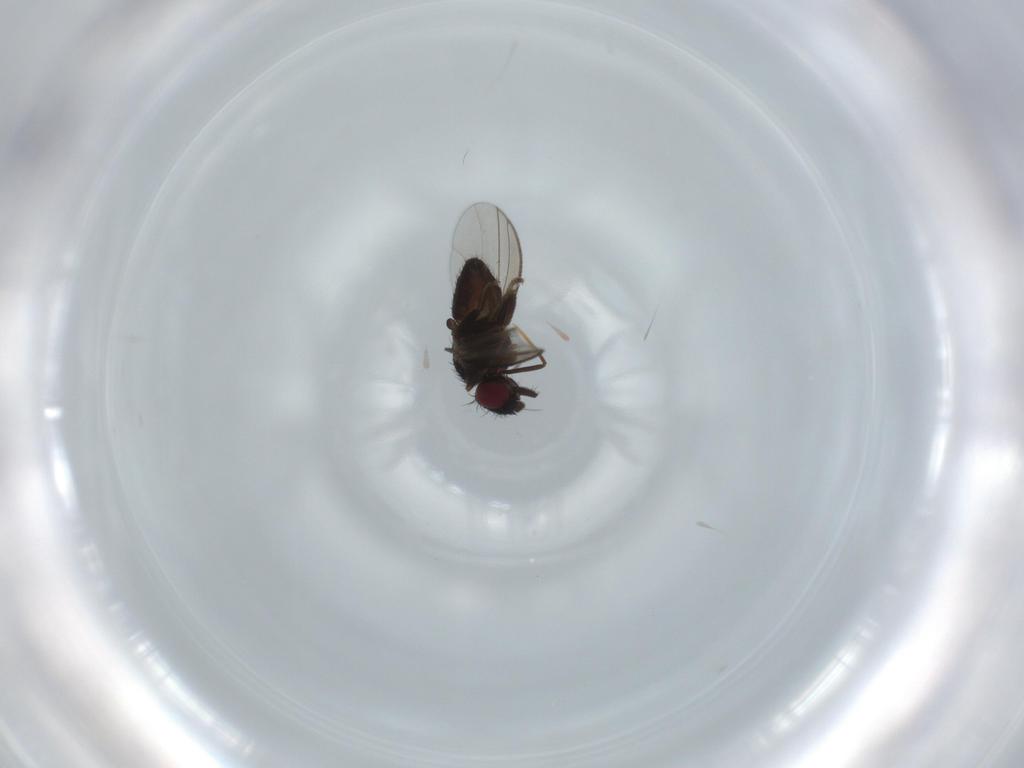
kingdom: Animalia
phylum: Arthropoda
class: Insecta
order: Diptera
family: Milichiidae
